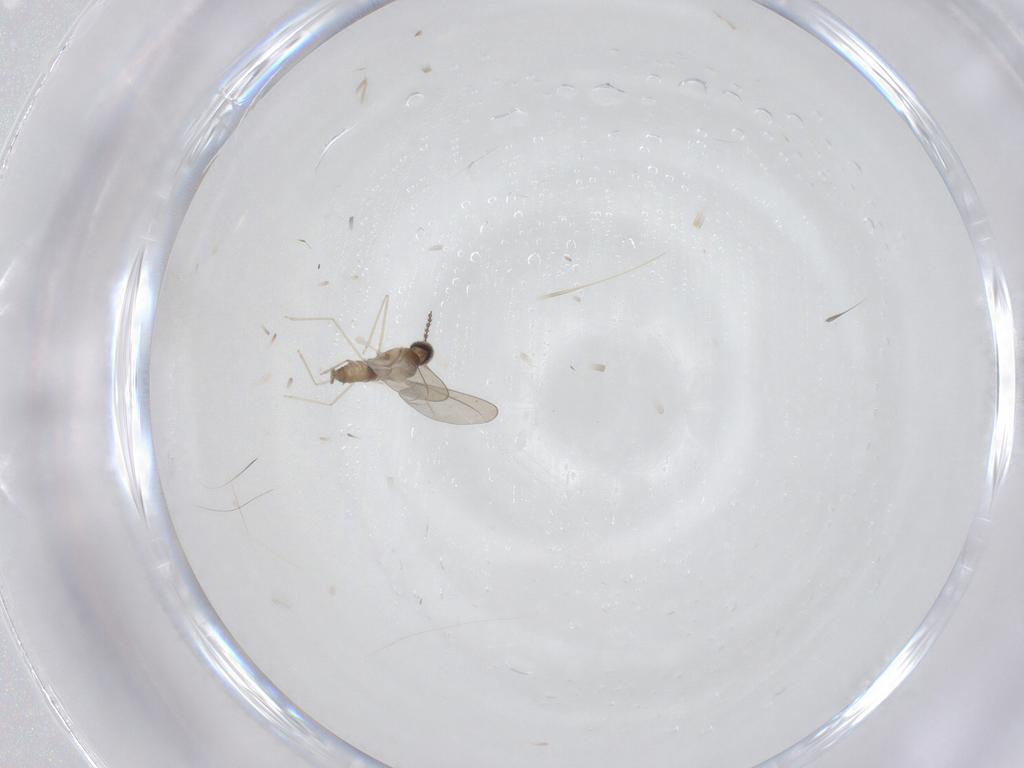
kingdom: Animalia
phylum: Arthropoda
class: Insecta
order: Diptera
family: Cecidomyiidae
